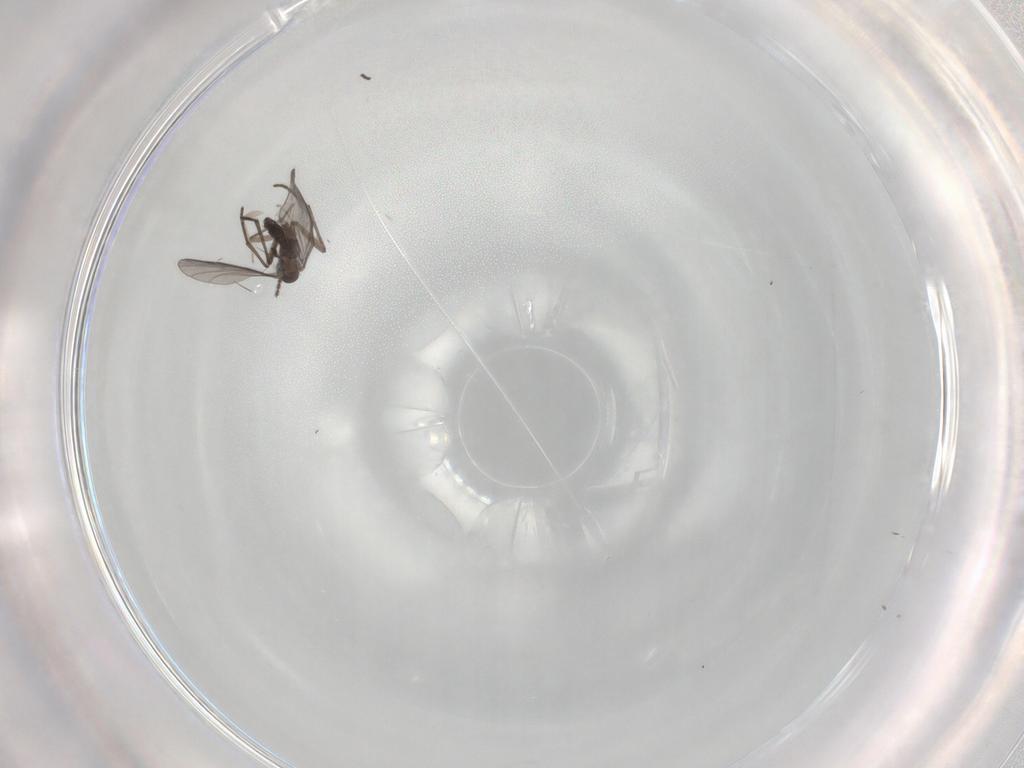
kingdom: Animalia
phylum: Arthropoda
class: Insecta
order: Diptera
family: Sciaridae
